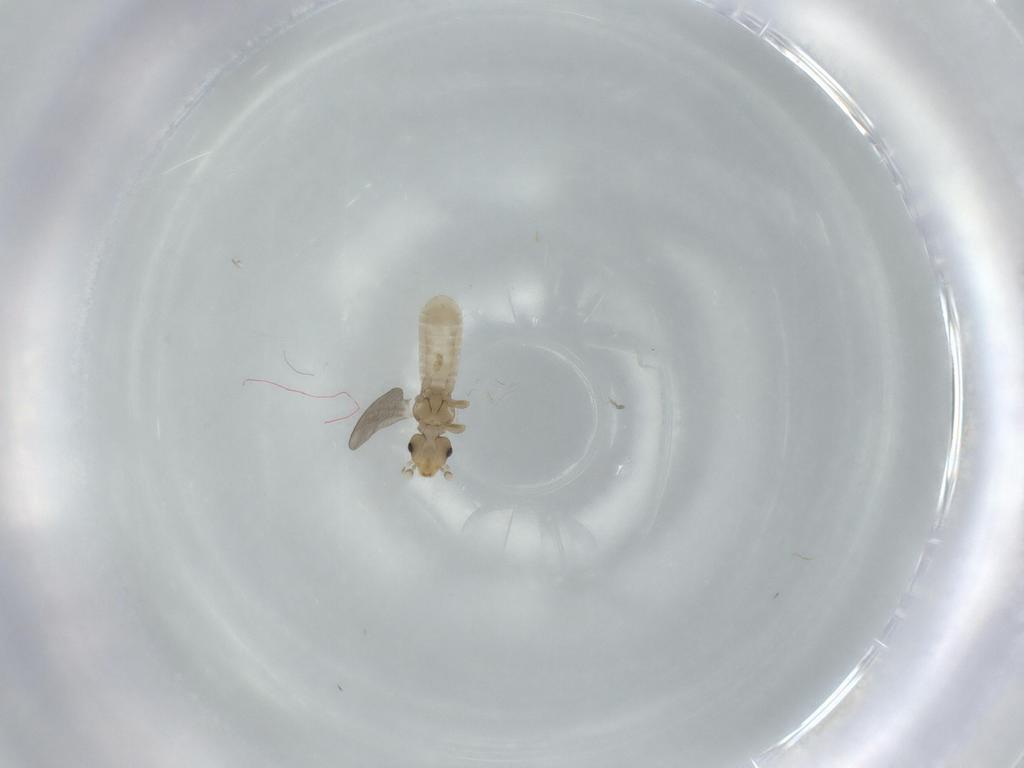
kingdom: Animalia
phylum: Arthropoda
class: Insecta
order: Psocodea
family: Liposcelididae
